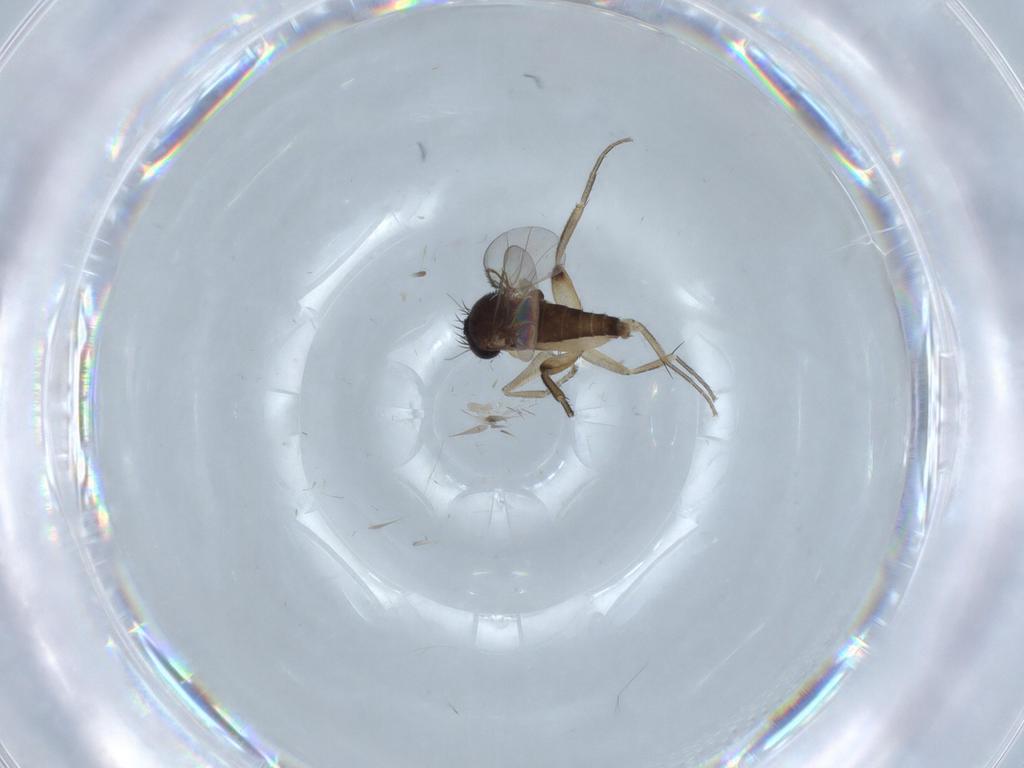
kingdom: Animalia
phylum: Arthropoda
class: Insecta
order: Diptera
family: Phoridae
